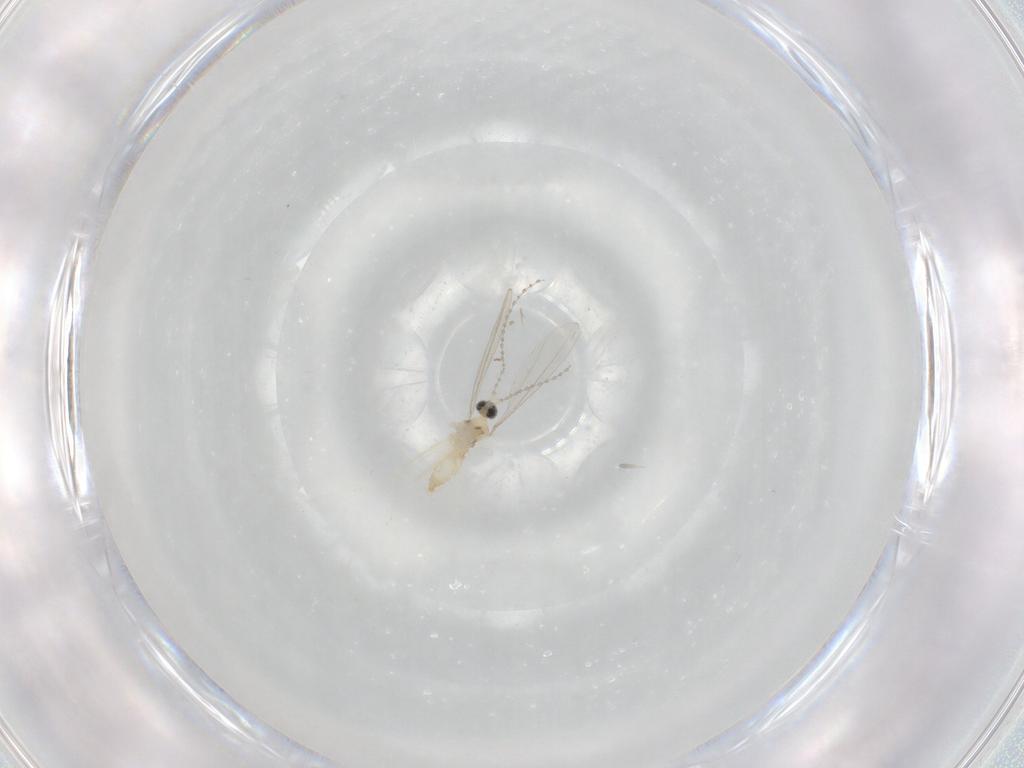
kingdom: Animalia
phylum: Arthropoda
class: Insecta
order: Diptera
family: Cecidomyiidae
